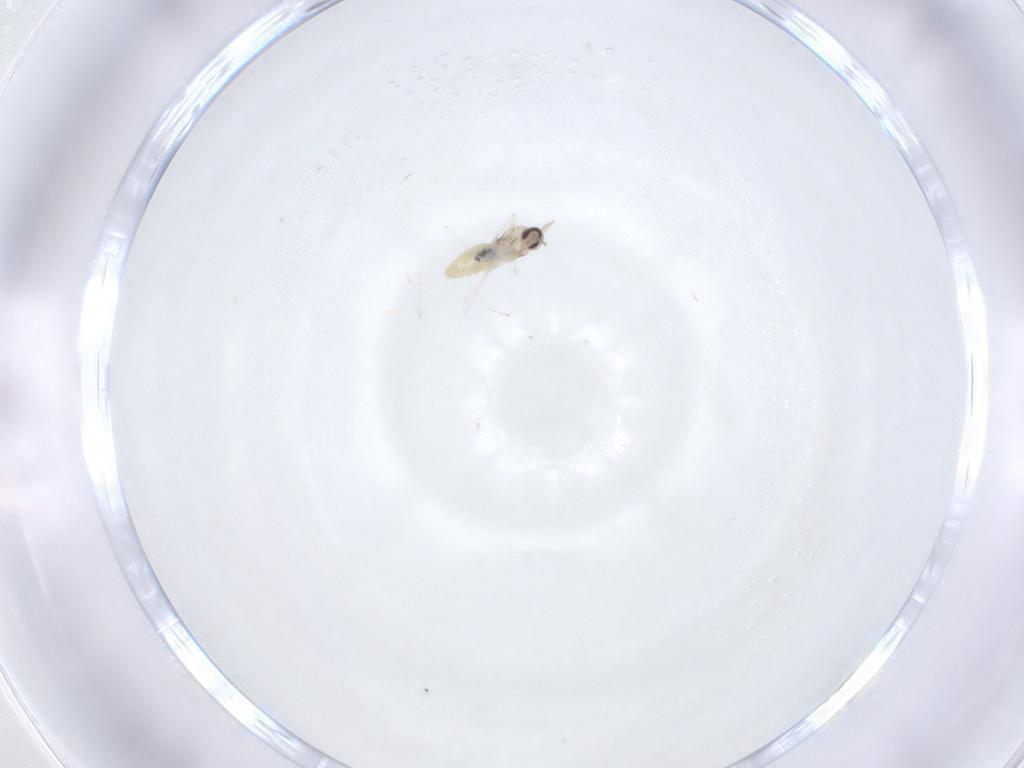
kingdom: Animalia
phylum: Arthropoda
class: Insecta
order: Diptera
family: Cecidomyiidae
